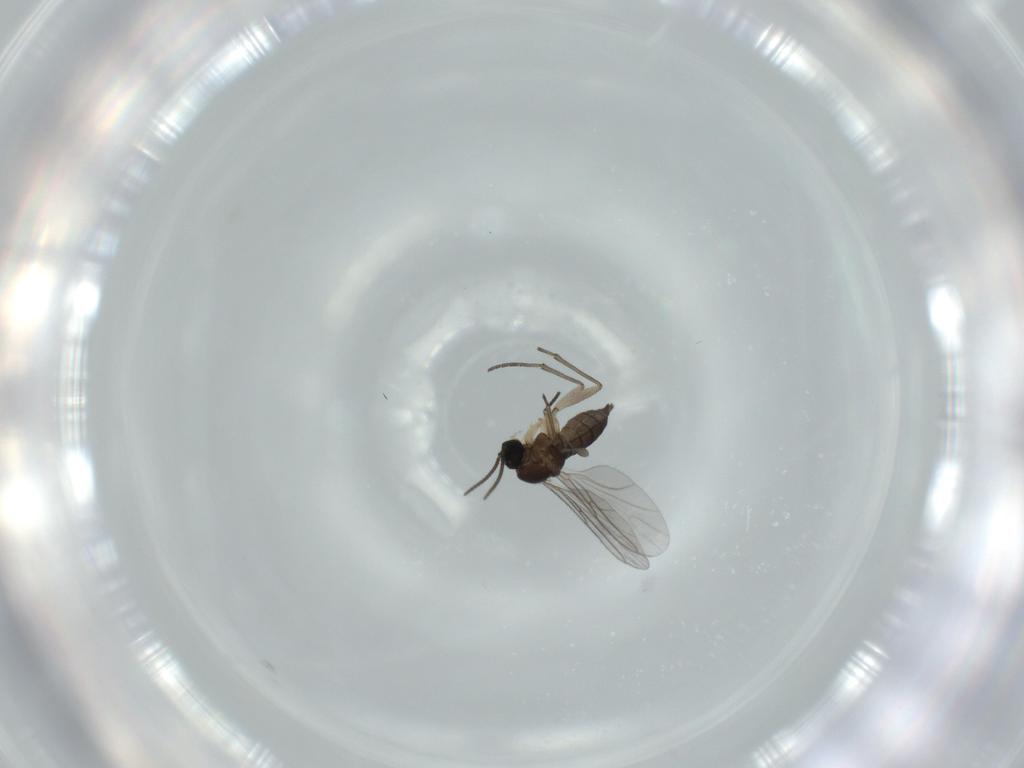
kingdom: Animalia
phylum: Arthropoda
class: Insecta
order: Diptera
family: Sciaridae
